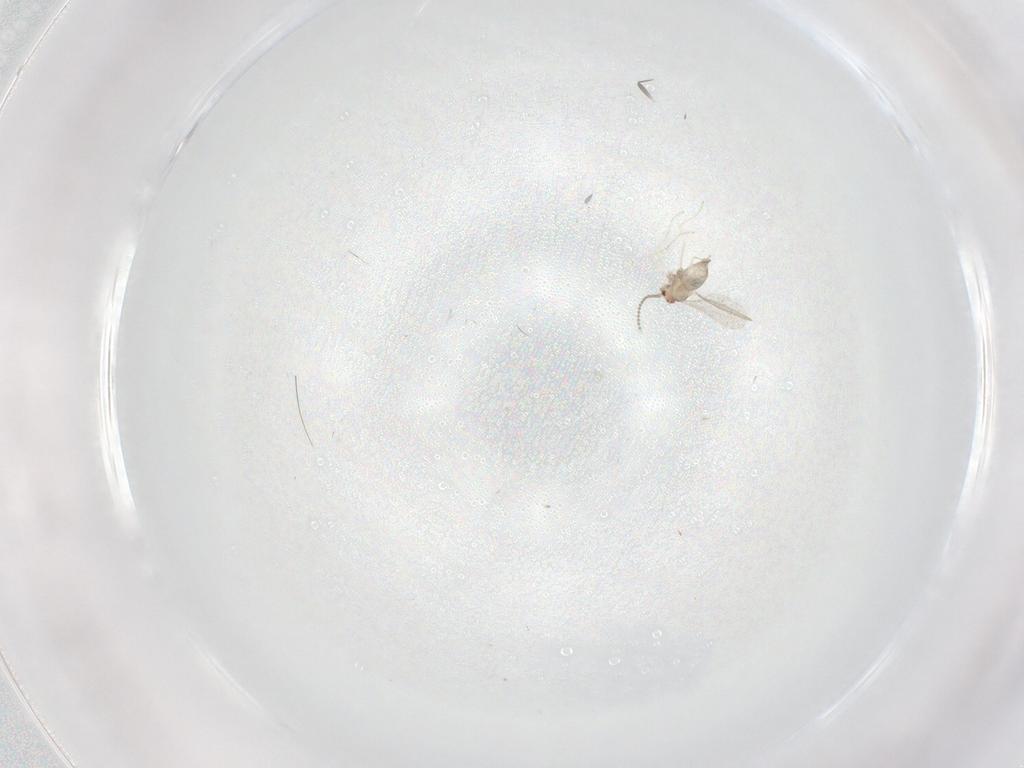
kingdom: Animalia
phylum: Arthropoda
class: Insecta
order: Diptera
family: Cecidomyiidae
